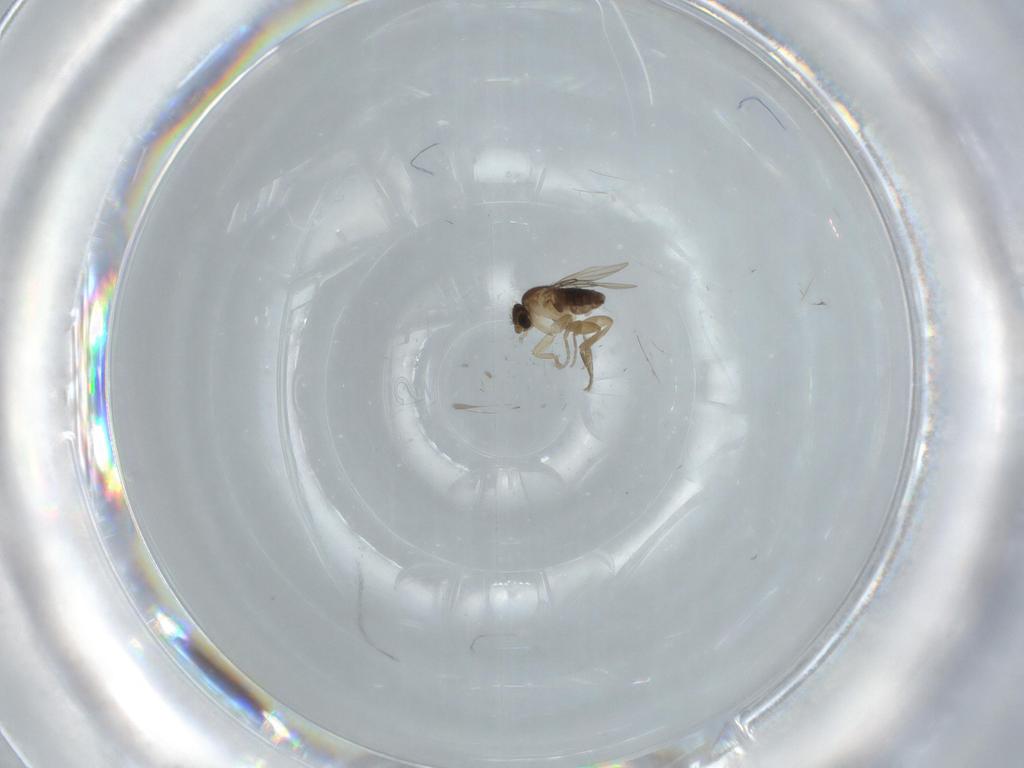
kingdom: Animalia
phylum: Arthropoda
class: Insecta
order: Diptera
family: Phoridae
